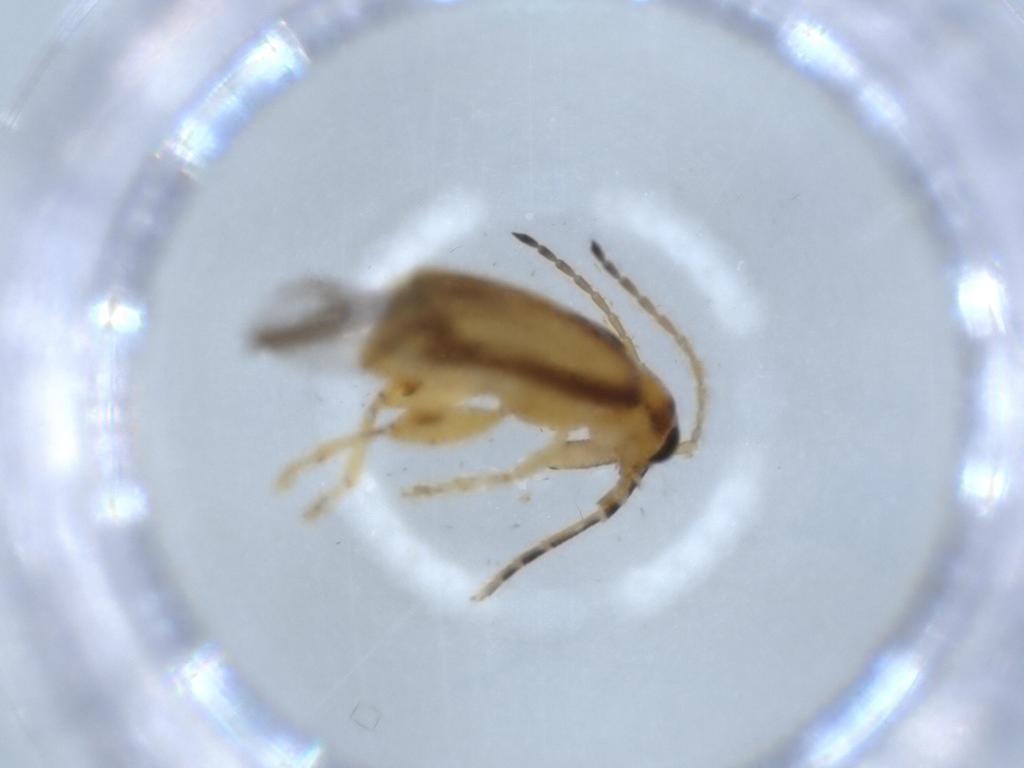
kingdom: Animalia
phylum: Arthropoda
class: Insecta
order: Coleoptera
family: Chrysomelidae
